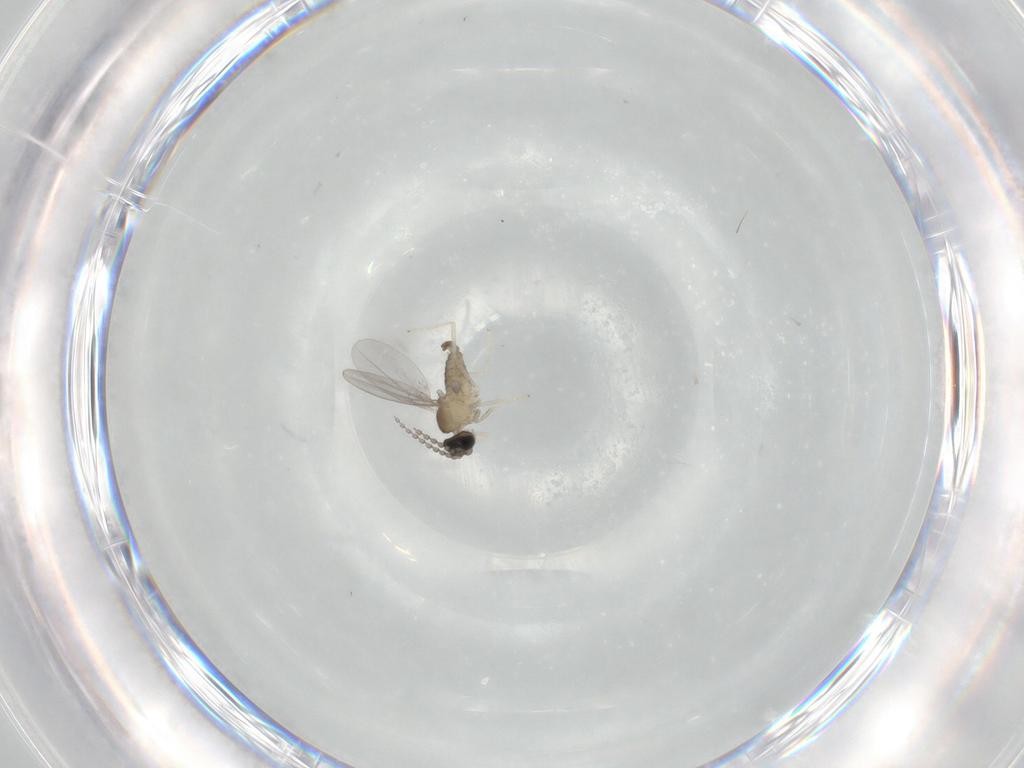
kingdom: Animalia
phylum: Arthropoda
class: Insecta
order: Diptera
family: Cecidomyiidae
